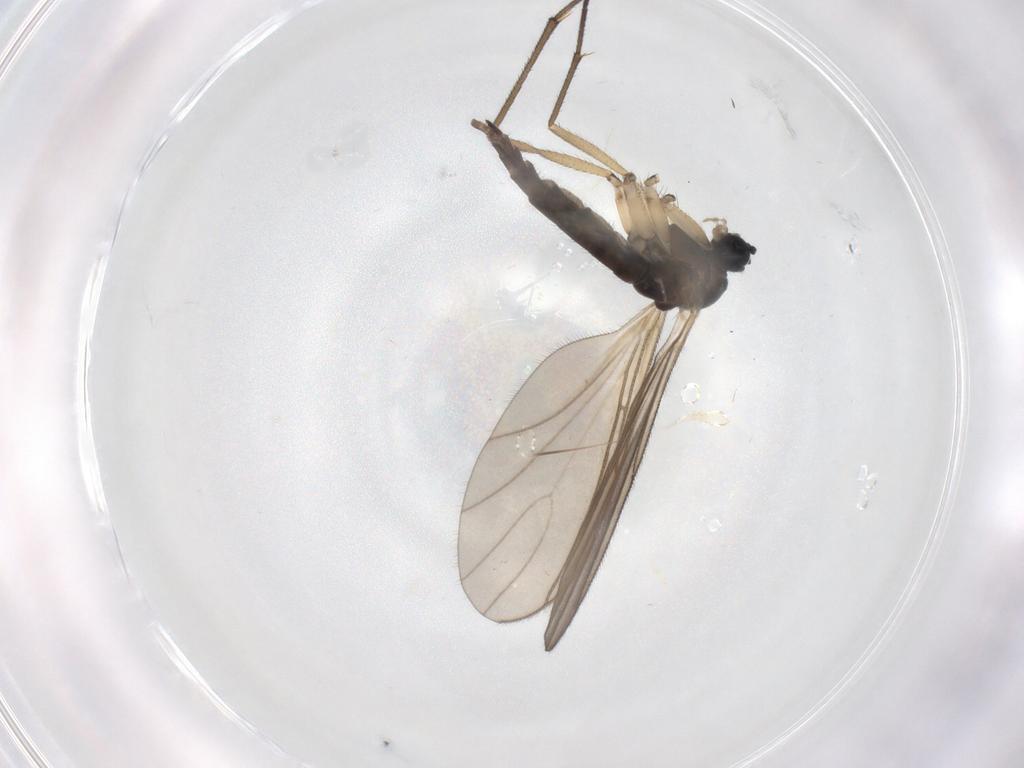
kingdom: Animalia
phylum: Arthropoda
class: Insecta
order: Diptera
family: Sciaridae
